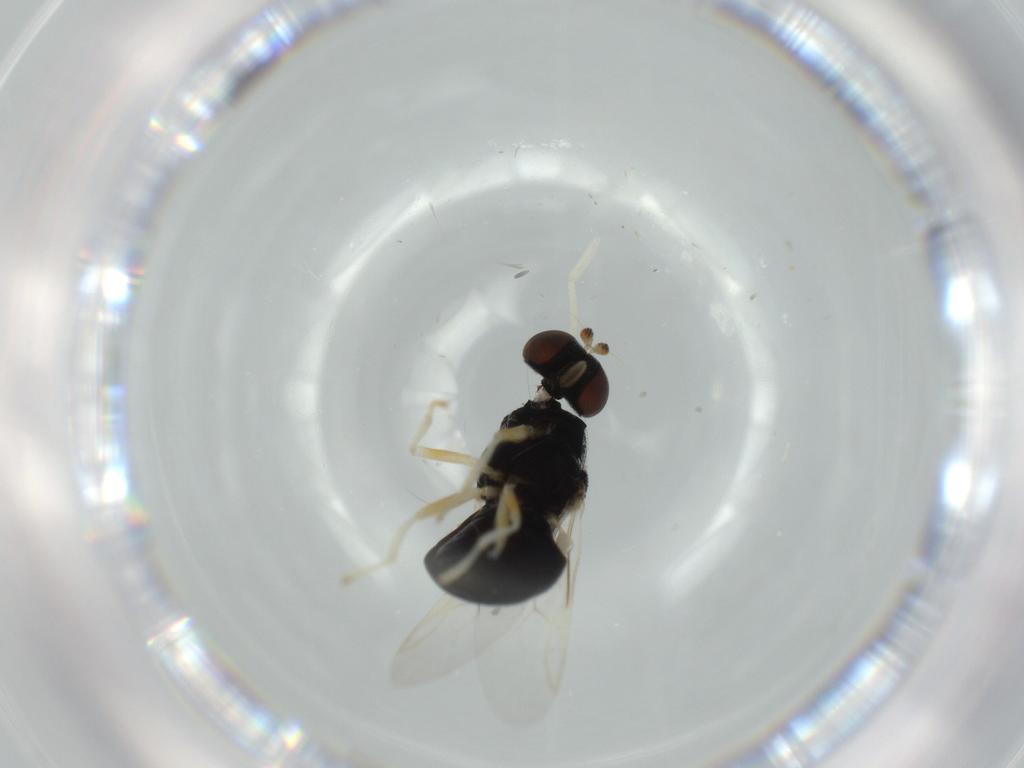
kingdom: Animalia
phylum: Arthropoda
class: Insecta
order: Diptera
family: Stratiomyidae
